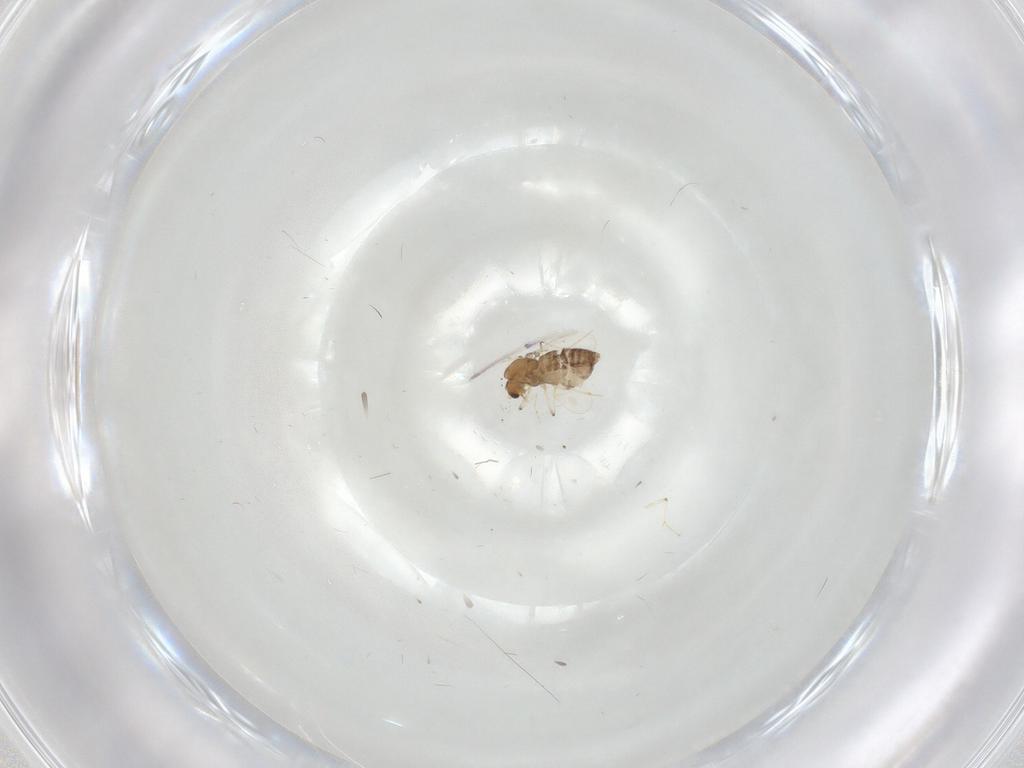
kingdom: Animalia
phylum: Arthropoda
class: Insecta
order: Diptera
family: Chironomidae
